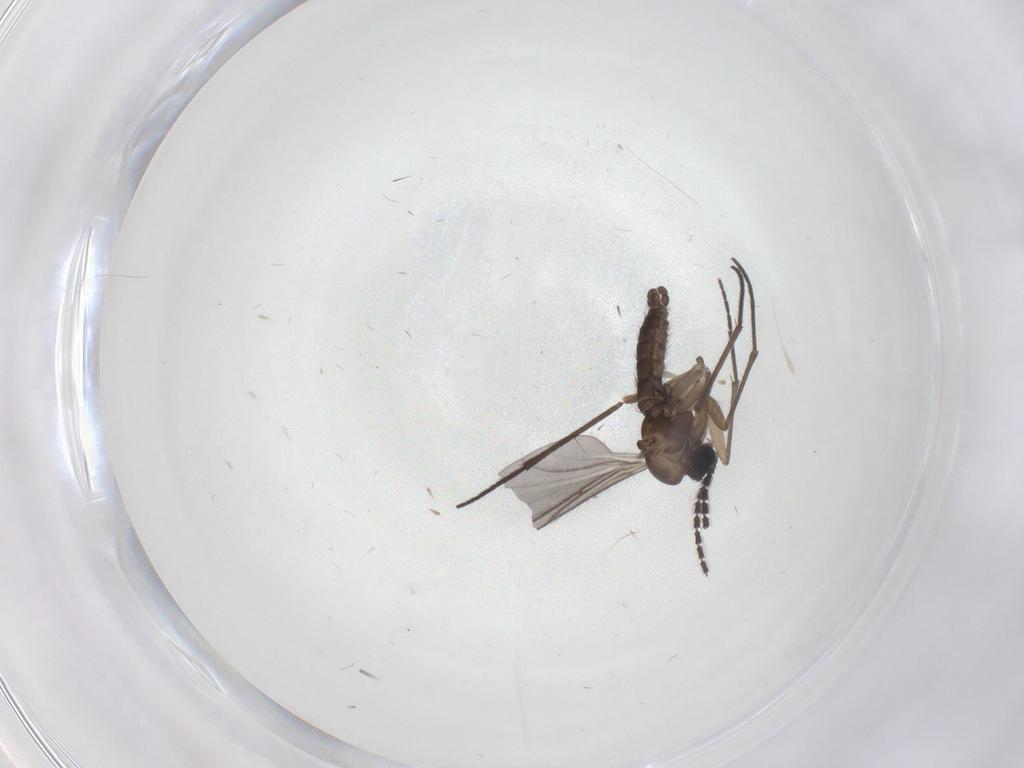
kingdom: Animalia
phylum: Arthropoda
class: Insecta
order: Diptera
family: Sciaridae
